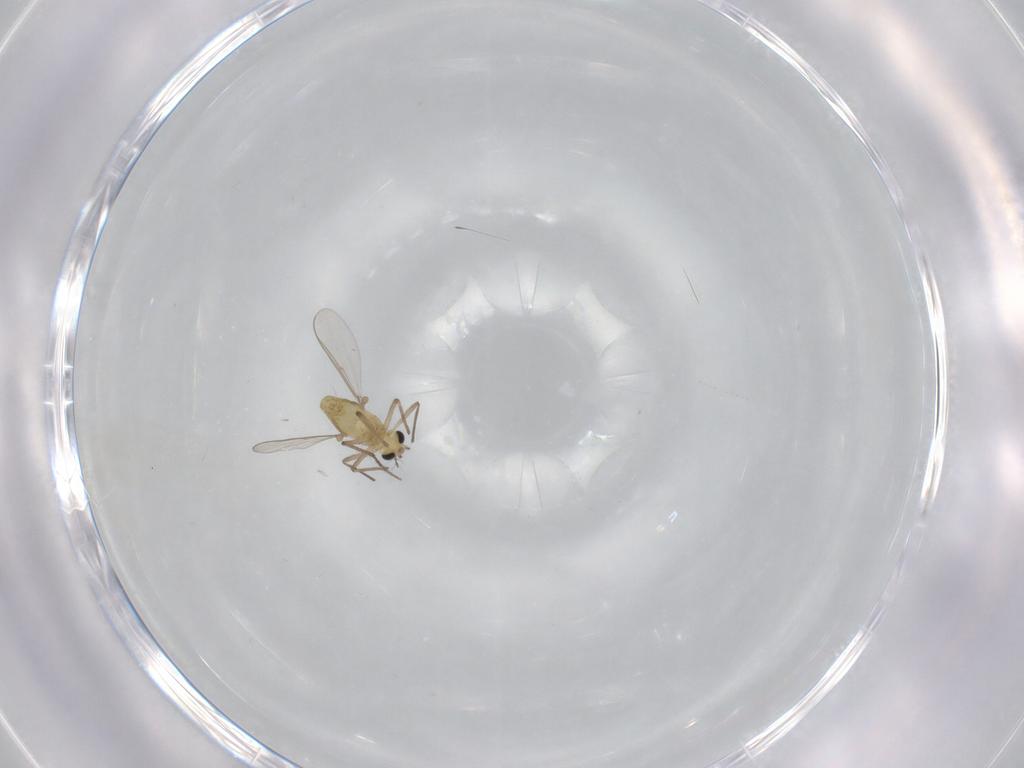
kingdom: Animalia
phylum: Arthropoda
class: Insecta
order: Diptera
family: Chironomidae
